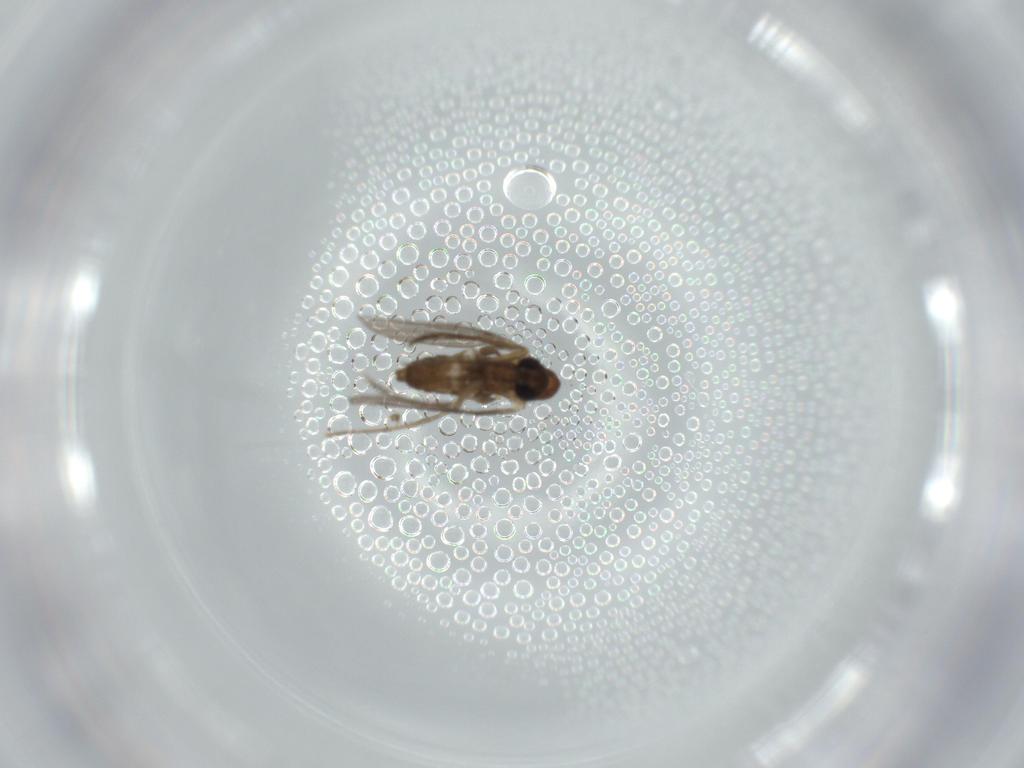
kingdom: Animalia
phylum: Arthropoda
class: Insecta
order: Diptera
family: Psychodidae
